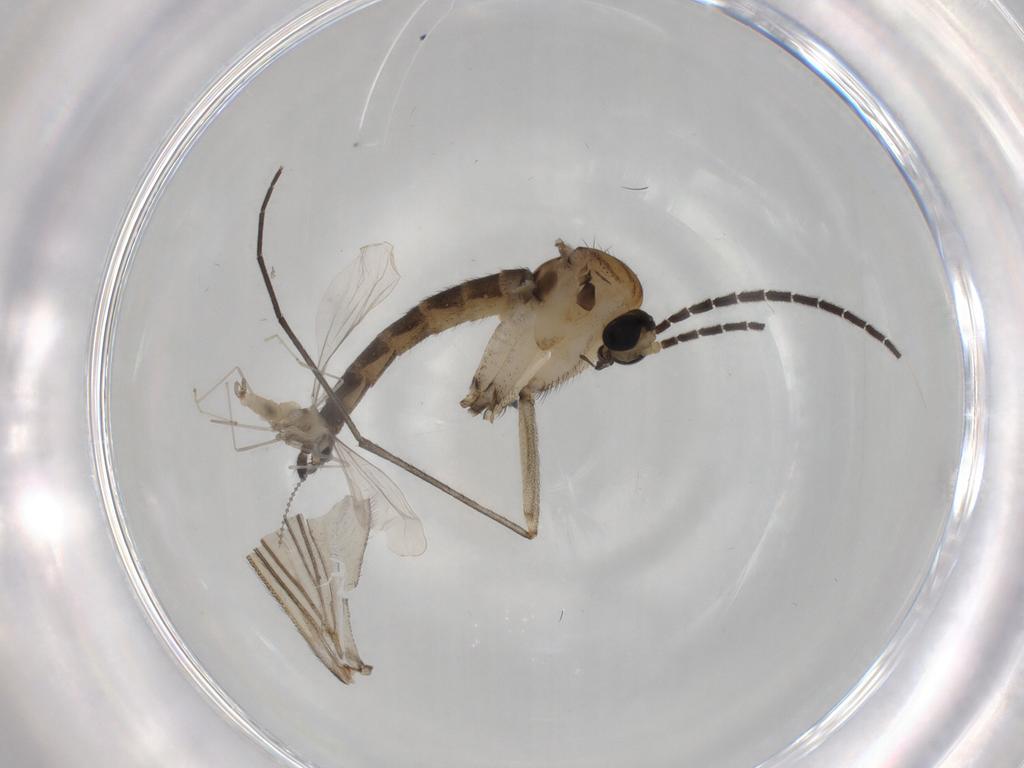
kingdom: Animalia
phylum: Arthropoda
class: Insecta
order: Diptera
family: Sciaridae
